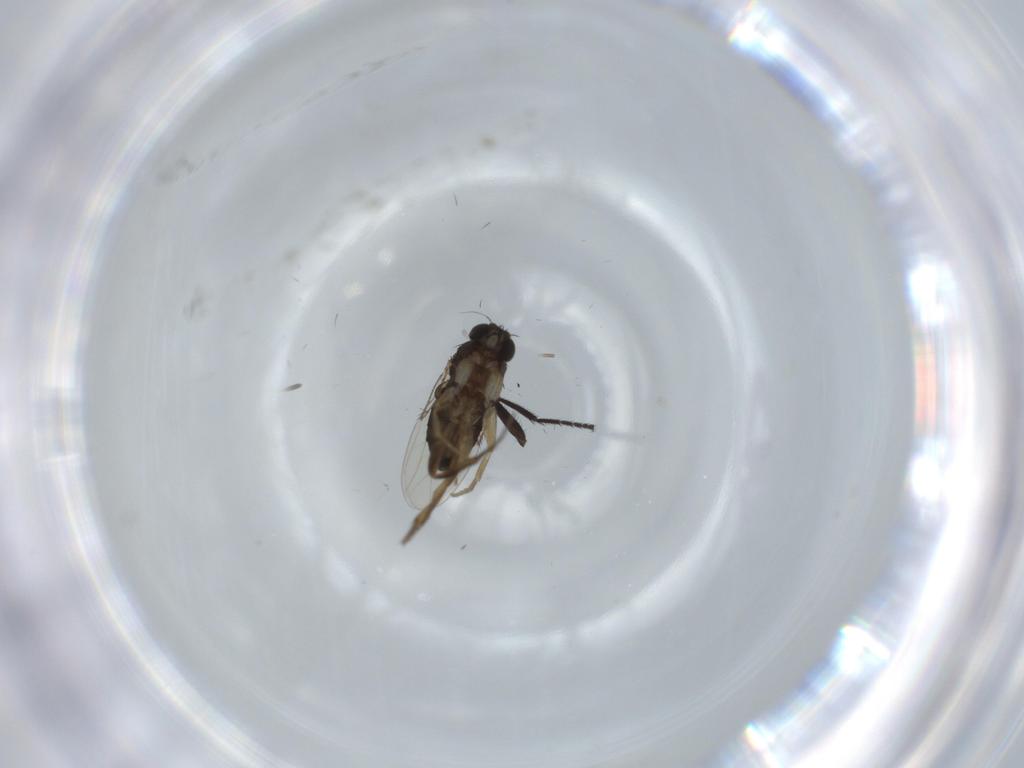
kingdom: Animalia
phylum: Arthropoda
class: Insecta
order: Diptera
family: Phoridae
